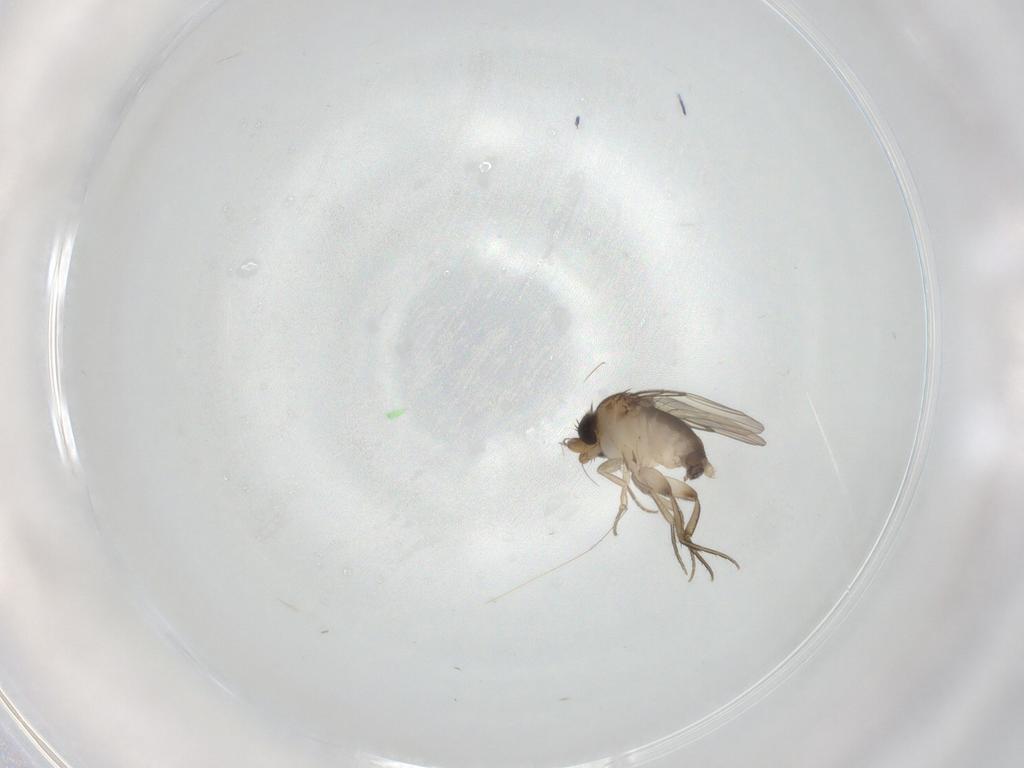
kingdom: Animalia
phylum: Arthropoda
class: Insecta
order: Diptera
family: Phoridae
